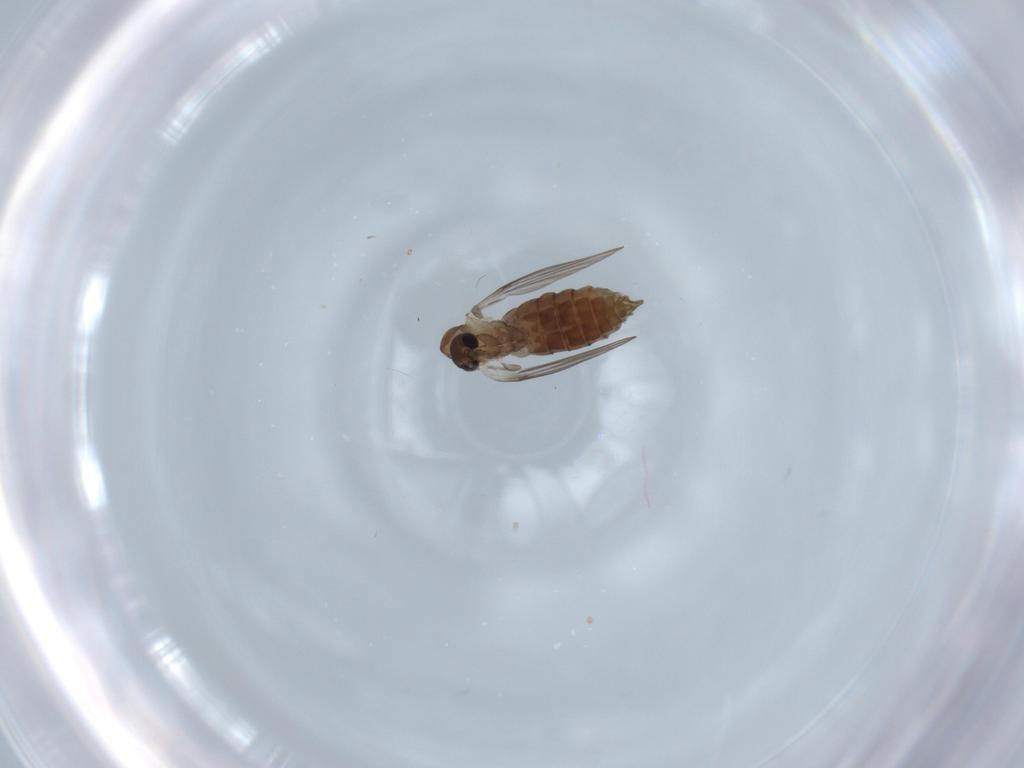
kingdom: Animalia
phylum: Arthropoda
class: Insecta
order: Diptera
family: Psychodidae
